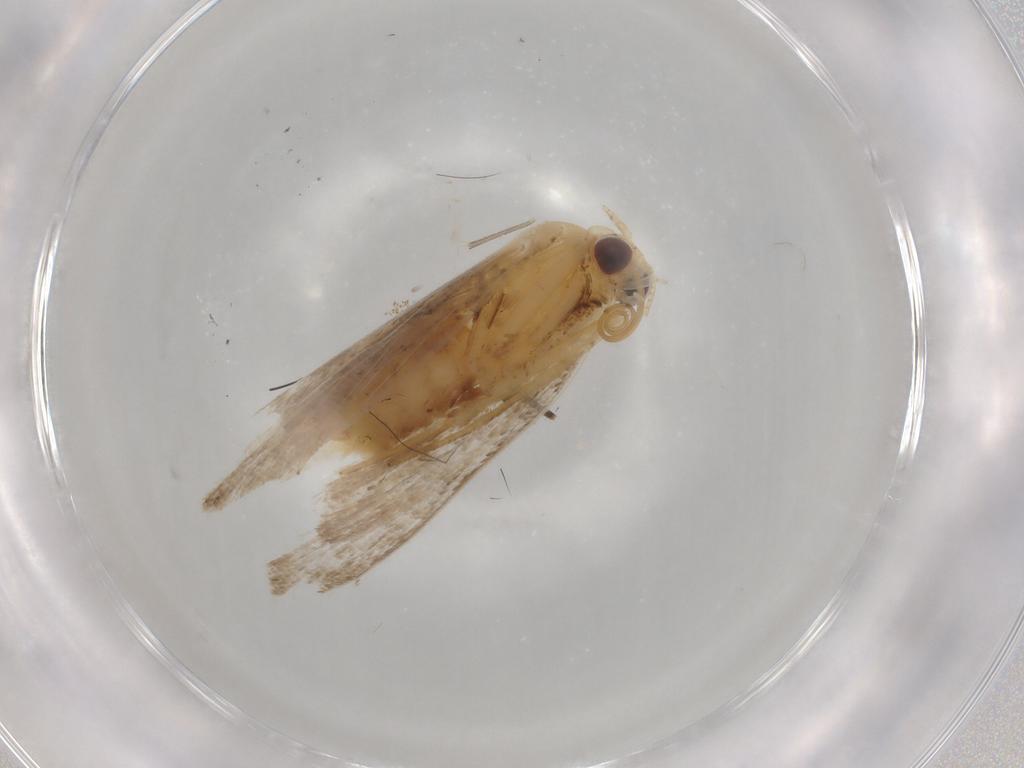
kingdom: Animalia
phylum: Arthropoda
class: Insecta
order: Lepidoptera
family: Erebidae
